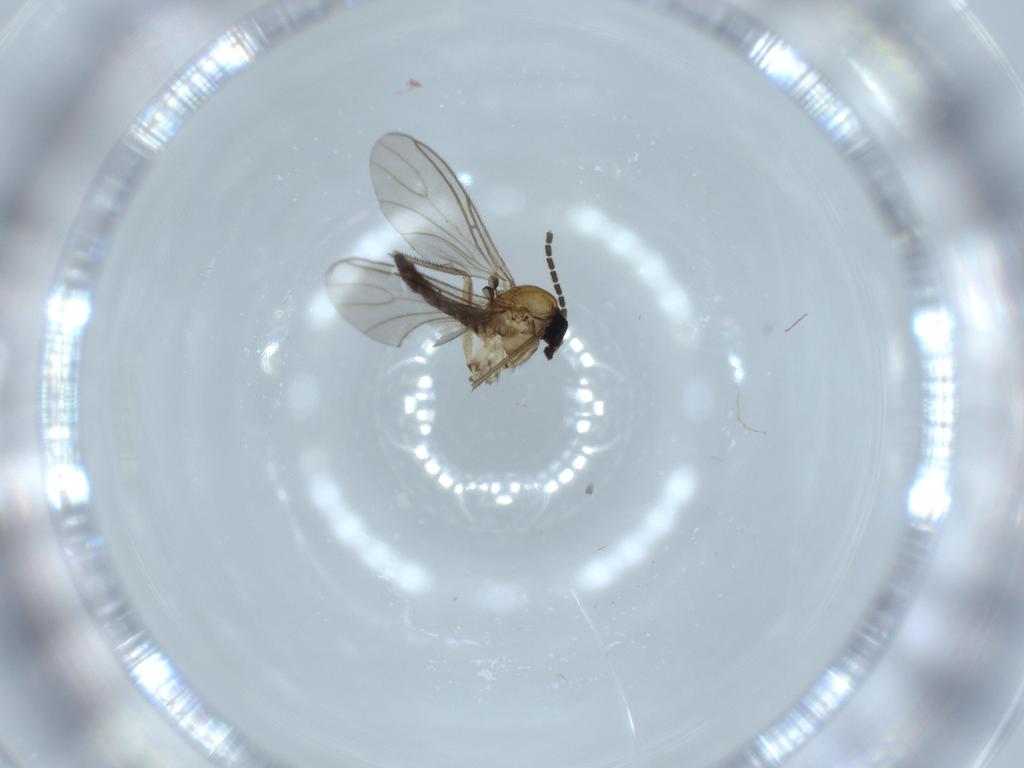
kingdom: Animalia
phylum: Arthropoda
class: Insecta
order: Diptera
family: Sciaridae
